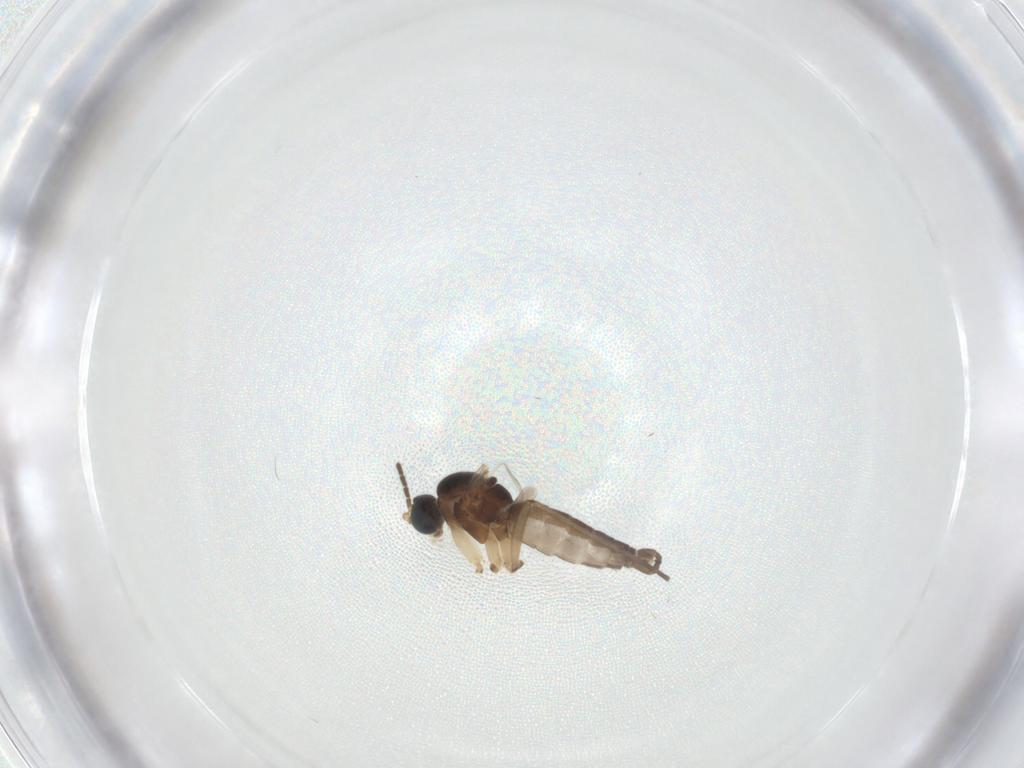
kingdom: Animalia
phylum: Arthropoda
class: Insecta
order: Diptera
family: Sciaridae
